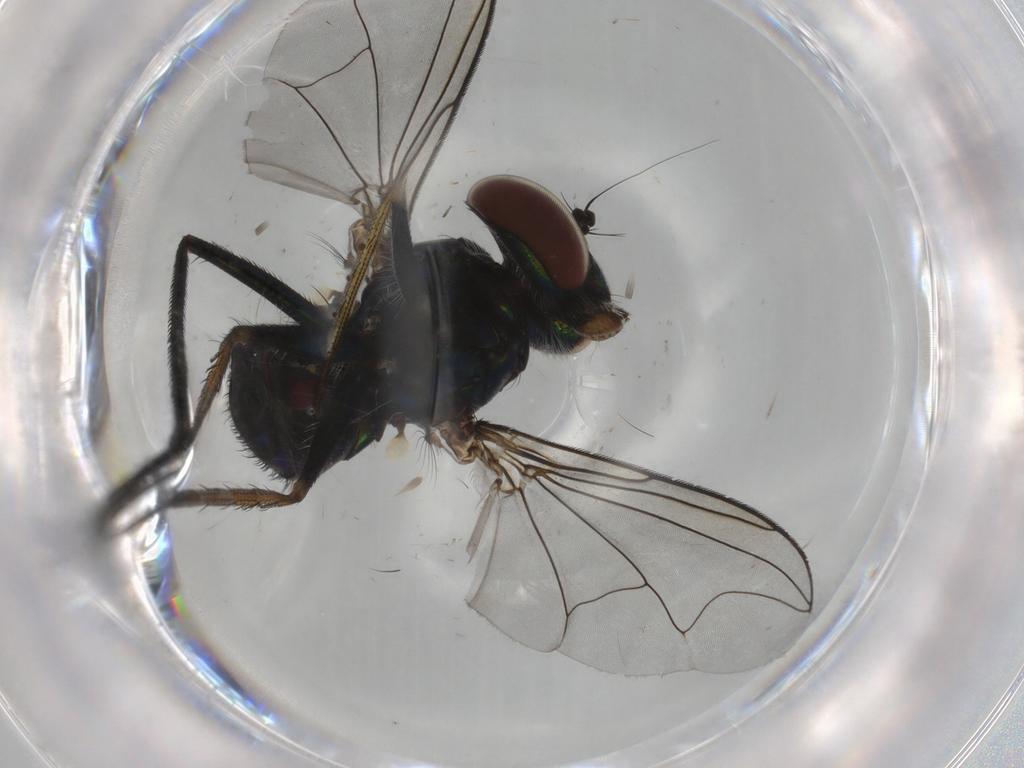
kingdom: Animalia
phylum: Arthropoda
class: Insecta
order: Diptera
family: Dolichopodidae
